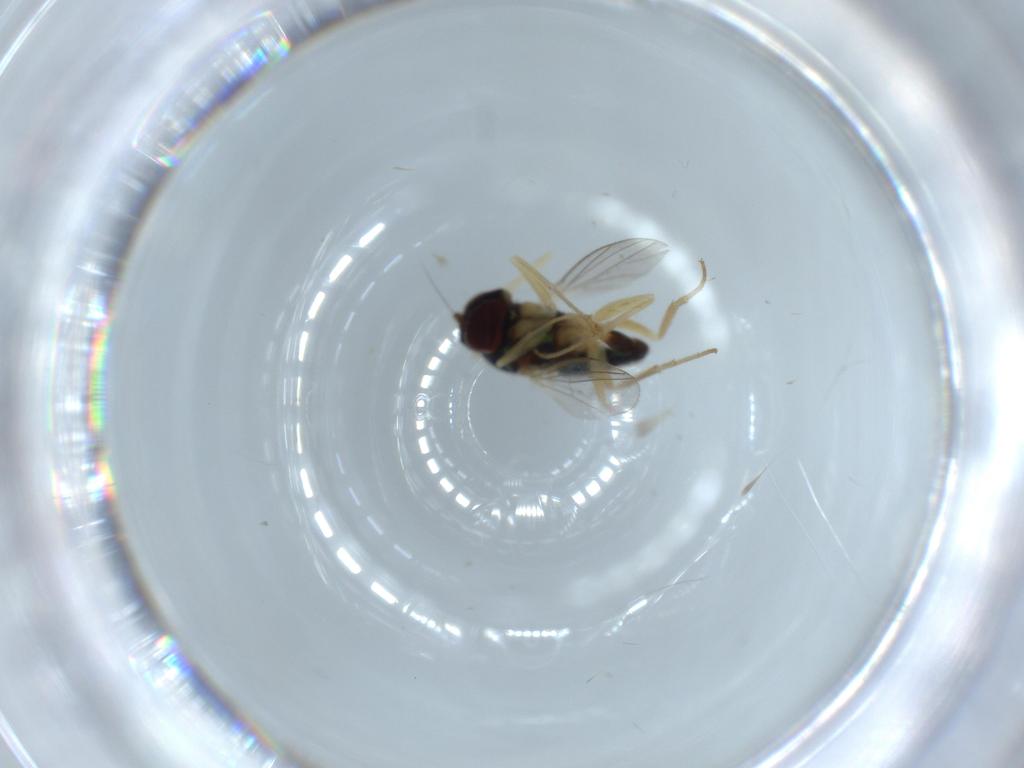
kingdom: Animalia
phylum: Arthropoda
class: Insecta
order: Diptera
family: Dolichopodidae
